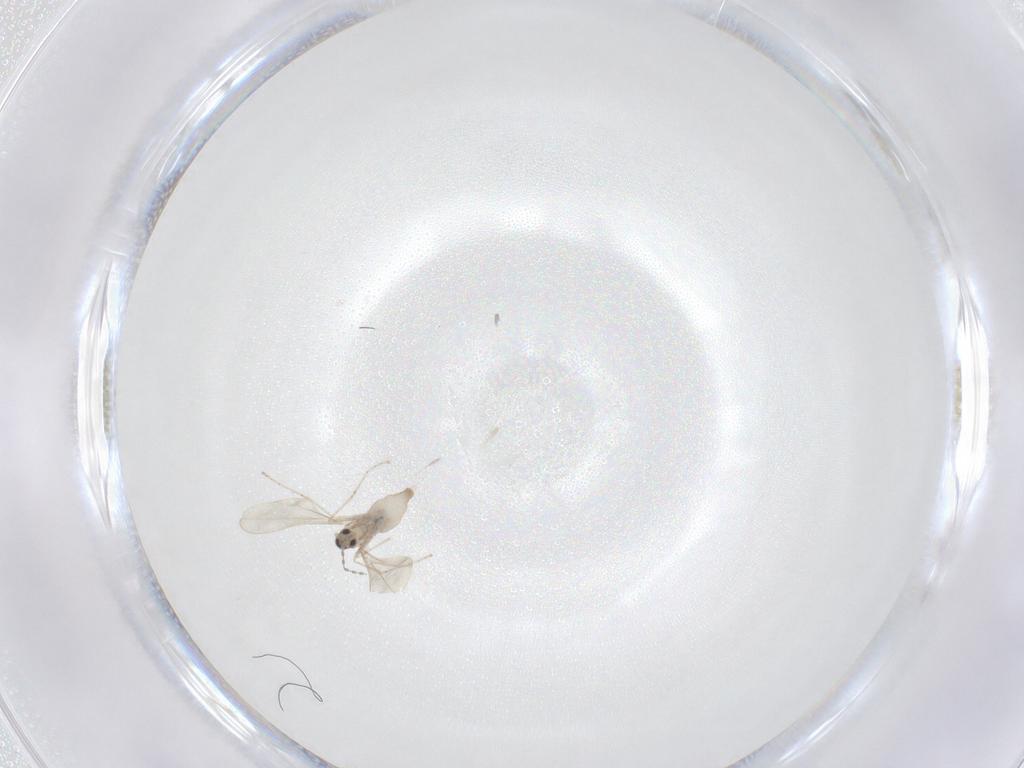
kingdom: Animalia
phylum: Arthropoda
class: Insecta
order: Diptera
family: Cecidomyiidae
